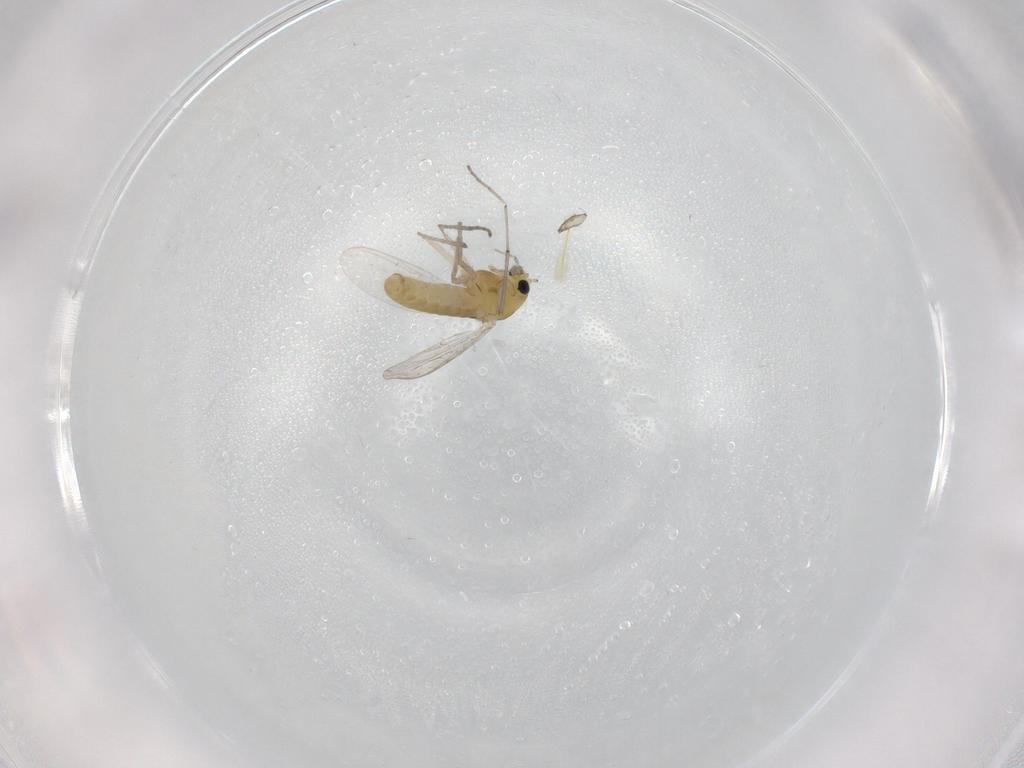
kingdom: Animalia
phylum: Arthropoda
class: Insecta
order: Diptera
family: Chironomidae
